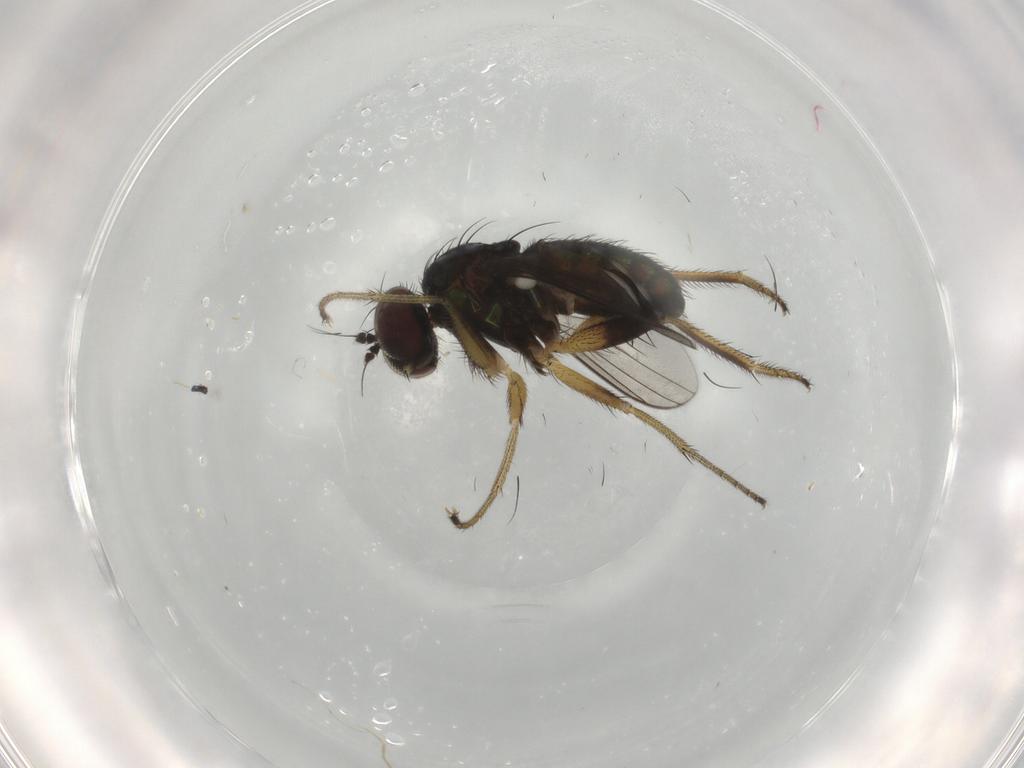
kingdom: Animalia
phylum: Arthropoda
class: Insecta
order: Diptera
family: Dolichopodidae
